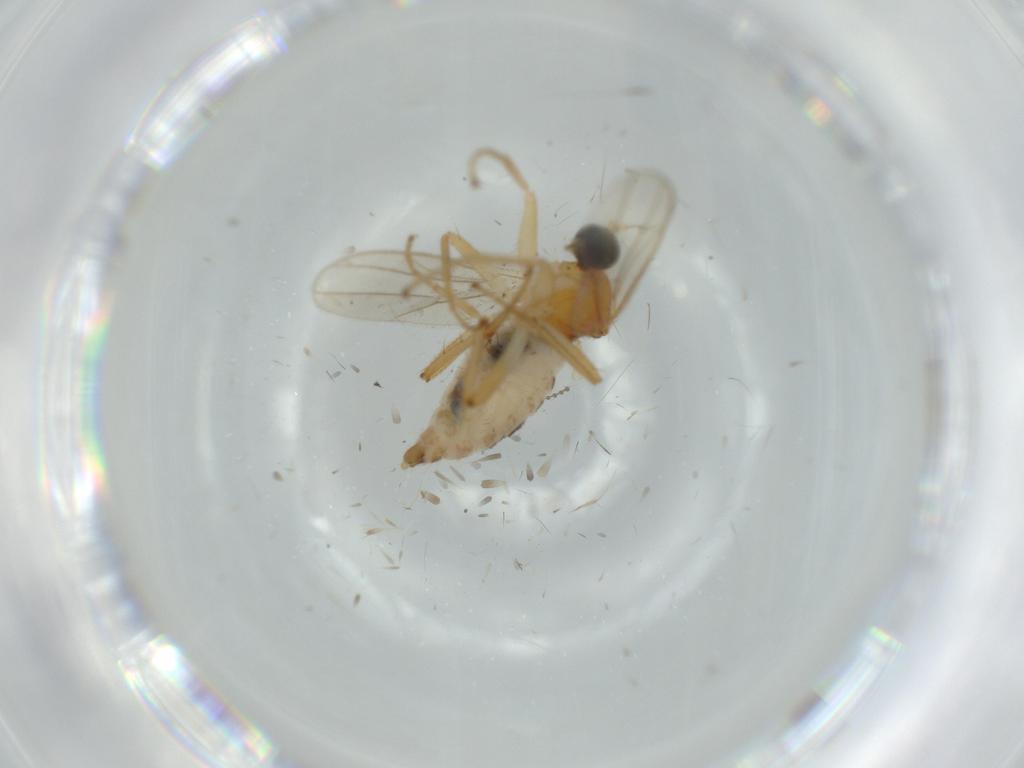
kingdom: Animalia
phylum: Arthropoda
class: Insecta
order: Diptera
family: Hybotidae
